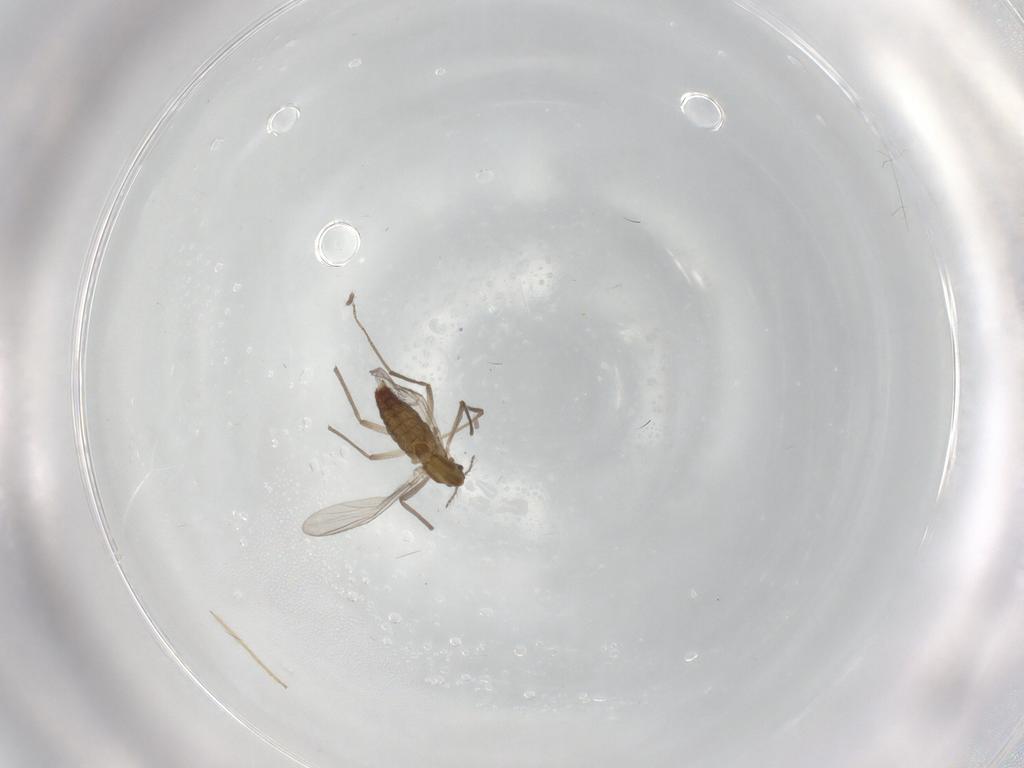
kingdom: Animalia
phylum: Arthropoda
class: Insecta
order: Diptera
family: Chironomidae
